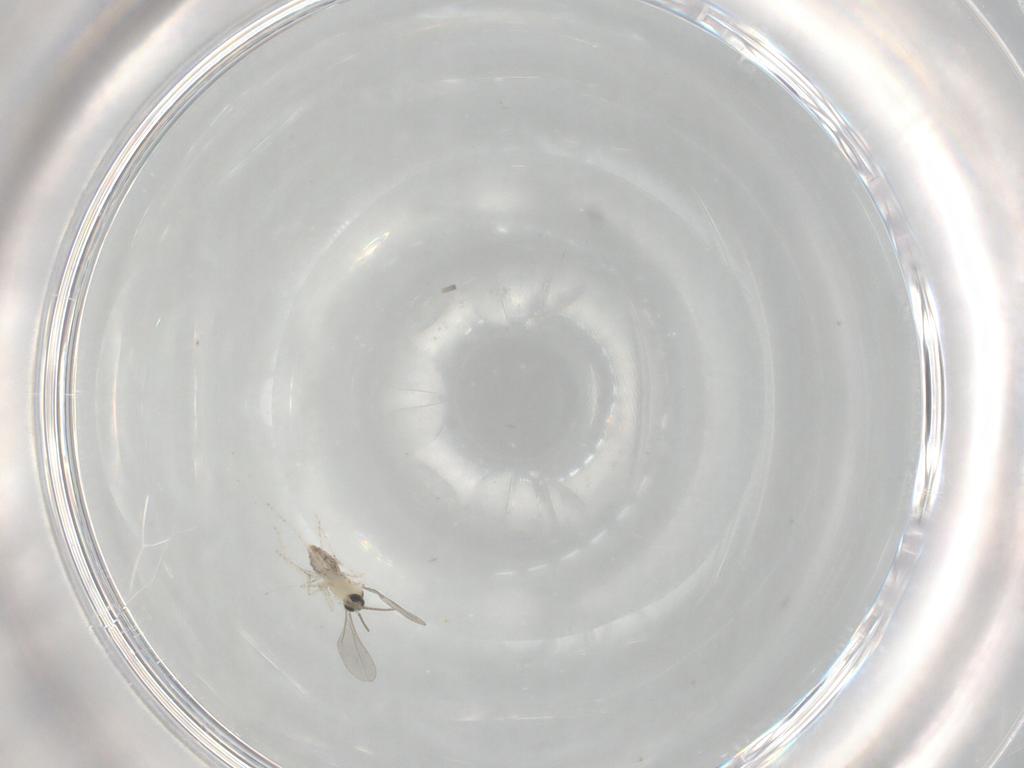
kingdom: Animalia
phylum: Arthropoda
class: Insecta
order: Diptera
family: Cecidomyiidae
